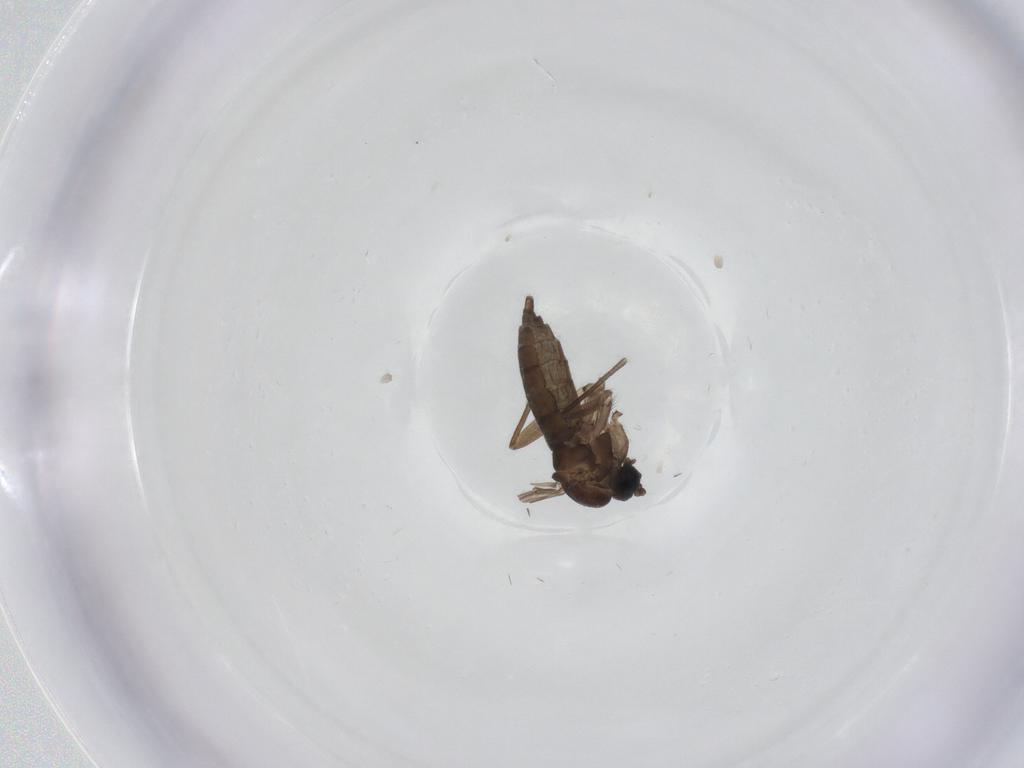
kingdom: Animalia
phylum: Arthropoda
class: Insecta
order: Diptera
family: Sciaridae
